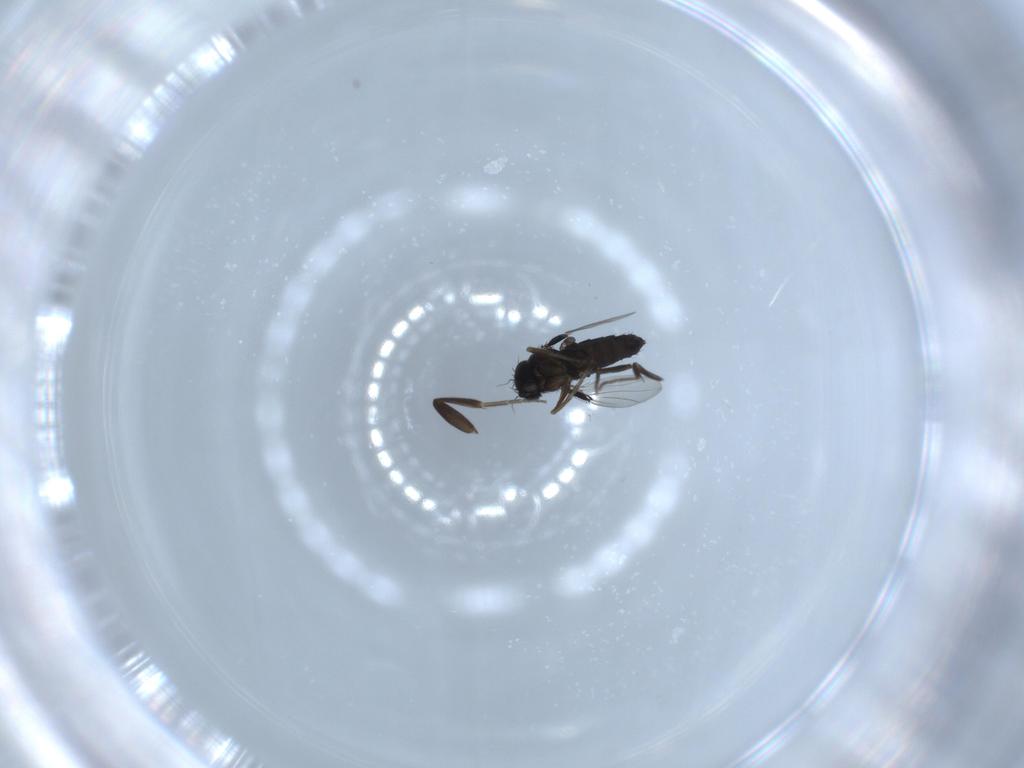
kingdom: Animalia
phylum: Arthropoda
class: Insecta
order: Diptera
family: Phoridae
